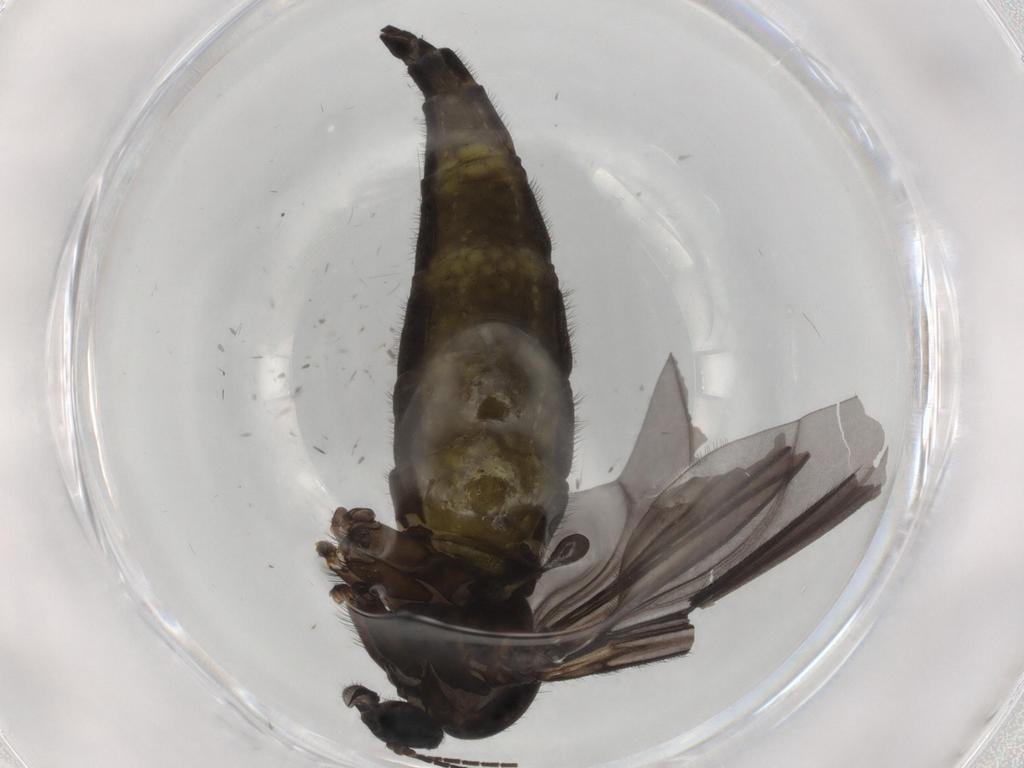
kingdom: Animalia
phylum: Arthropoda
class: Insecta
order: Diptera
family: Sciaridae
